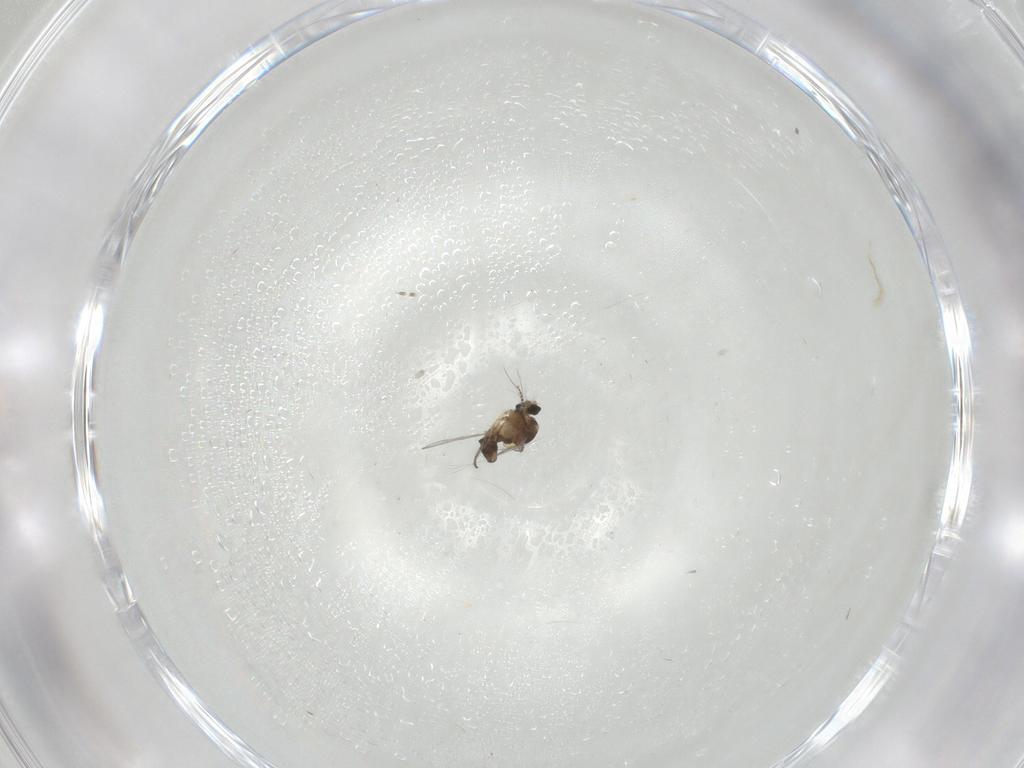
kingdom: Animalia
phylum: Arthropoda
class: Insecta
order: Diptera
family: Cecidomyiidae
